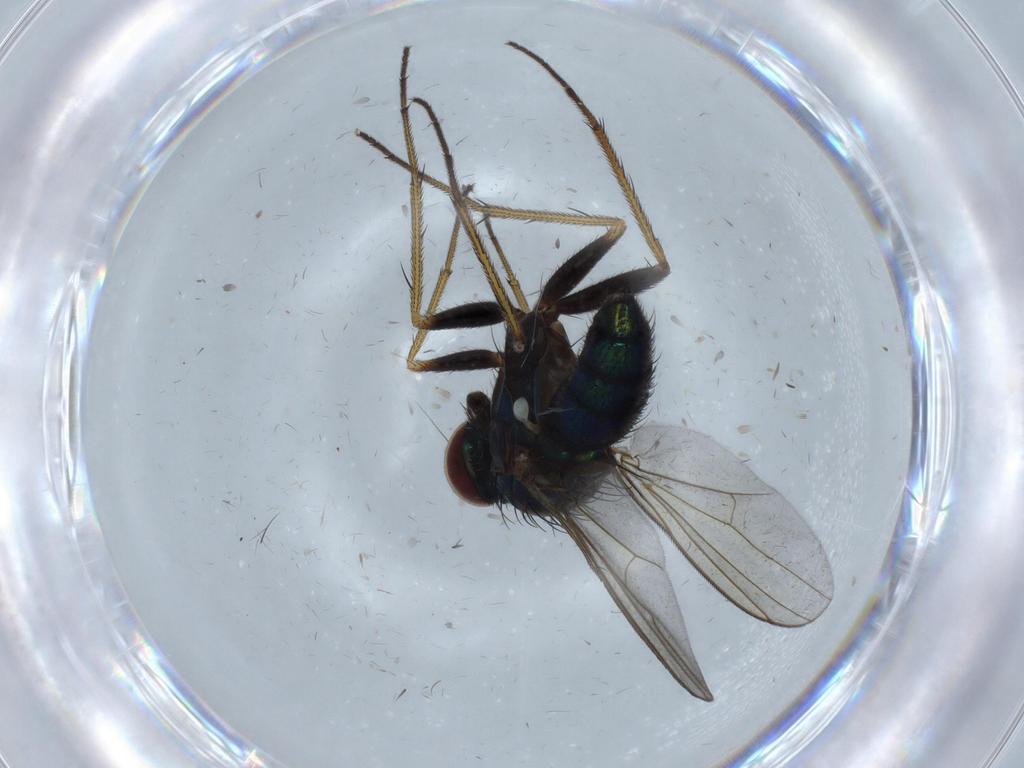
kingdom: Animalia
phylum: Arthropoda
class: Insecta
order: Diptera
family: Dolichopodidae
